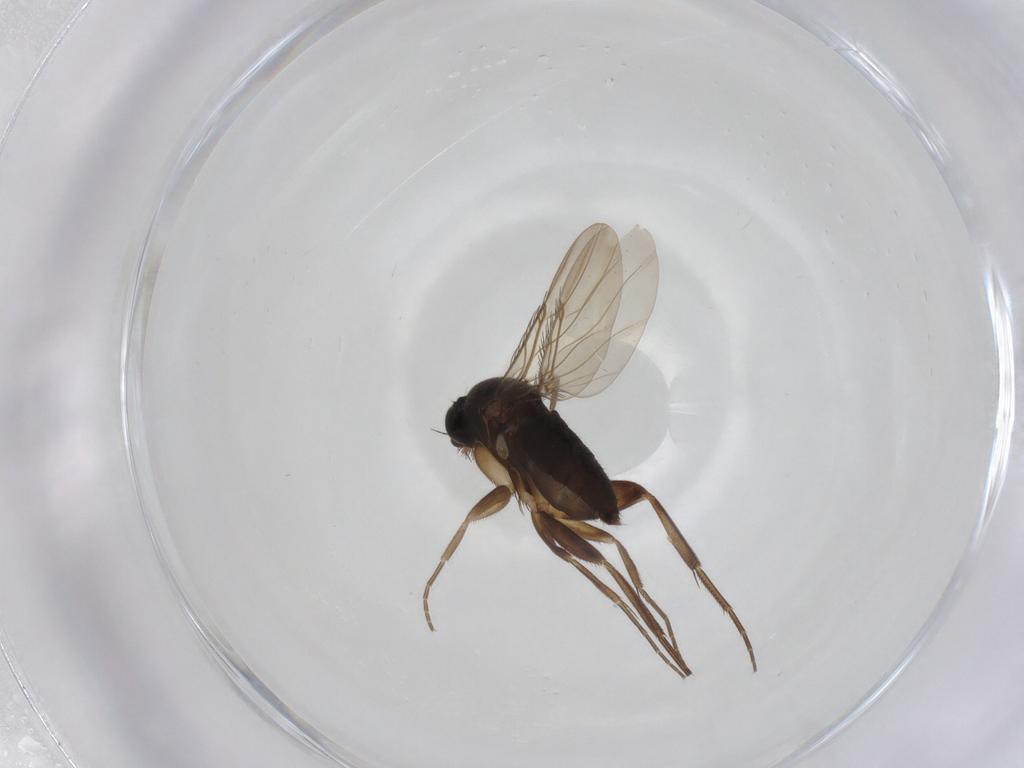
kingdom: Animalia
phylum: Arthropoda
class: Insecta
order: Diptera
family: Phoridae
